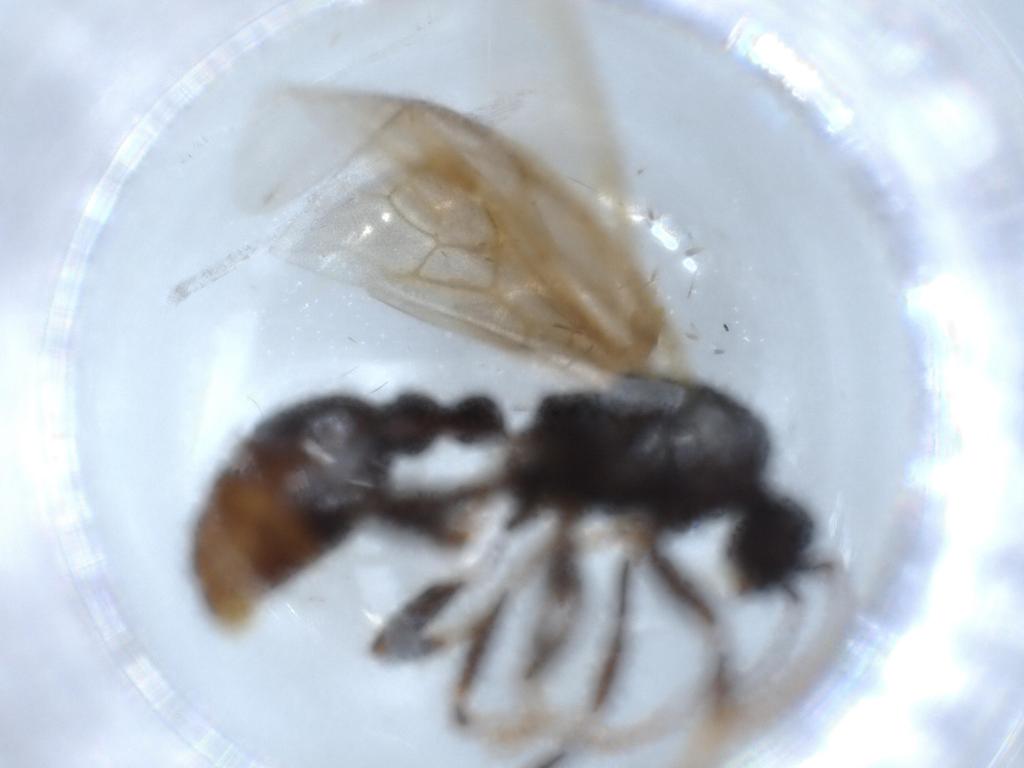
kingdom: Animalia
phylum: Arthropoda
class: Insecta
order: Hymenoptera
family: Formicidae
